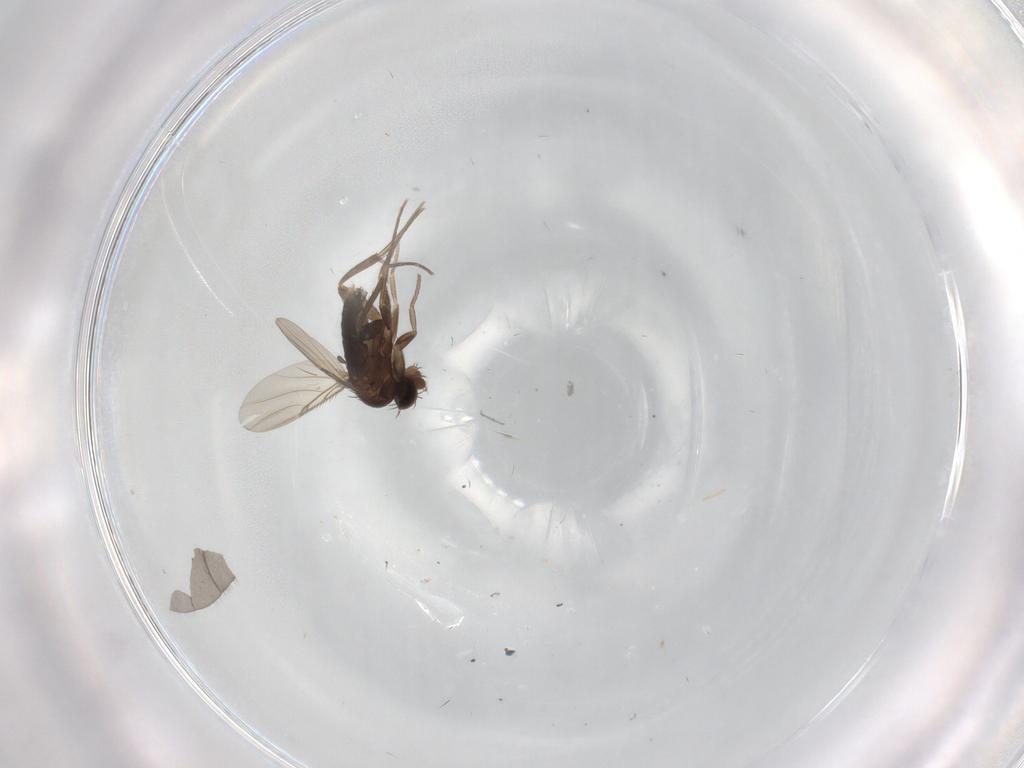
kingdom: Animalia
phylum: Arthropoda
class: Insecta
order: Diptera
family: Phoridae
